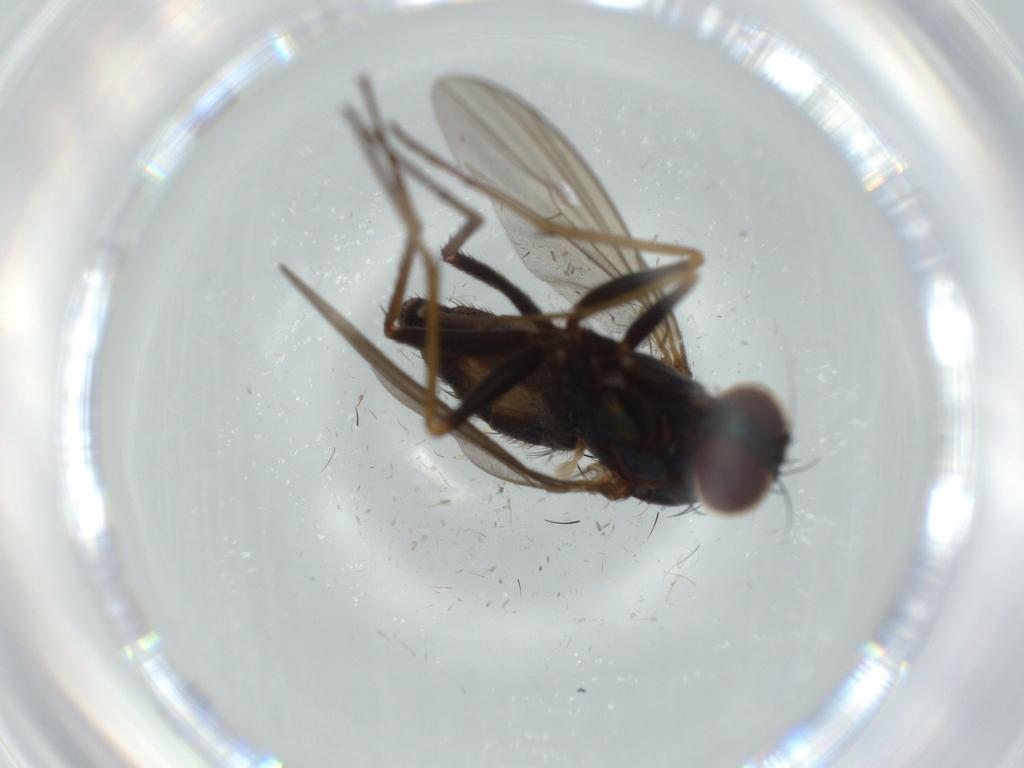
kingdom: Animalia
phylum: Arthropoda
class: Insecta
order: Diptera
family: Dolichopodidae
